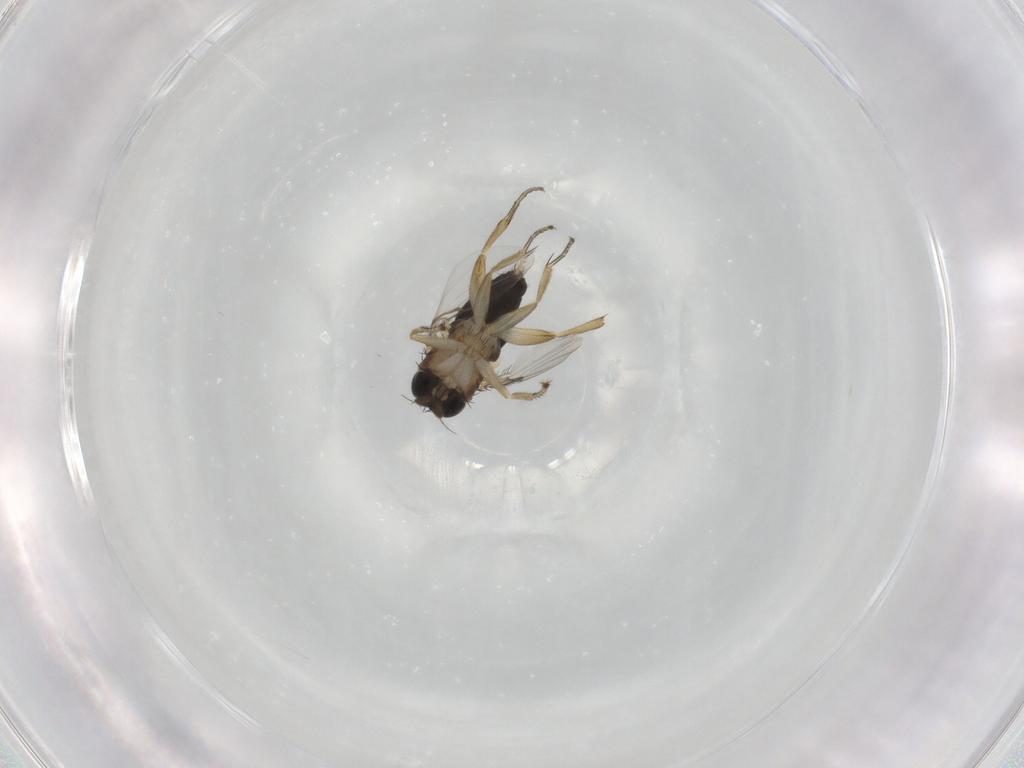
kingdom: Animalia
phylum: Arthropoda
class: Insecta
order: Diptera
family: Phoridae
